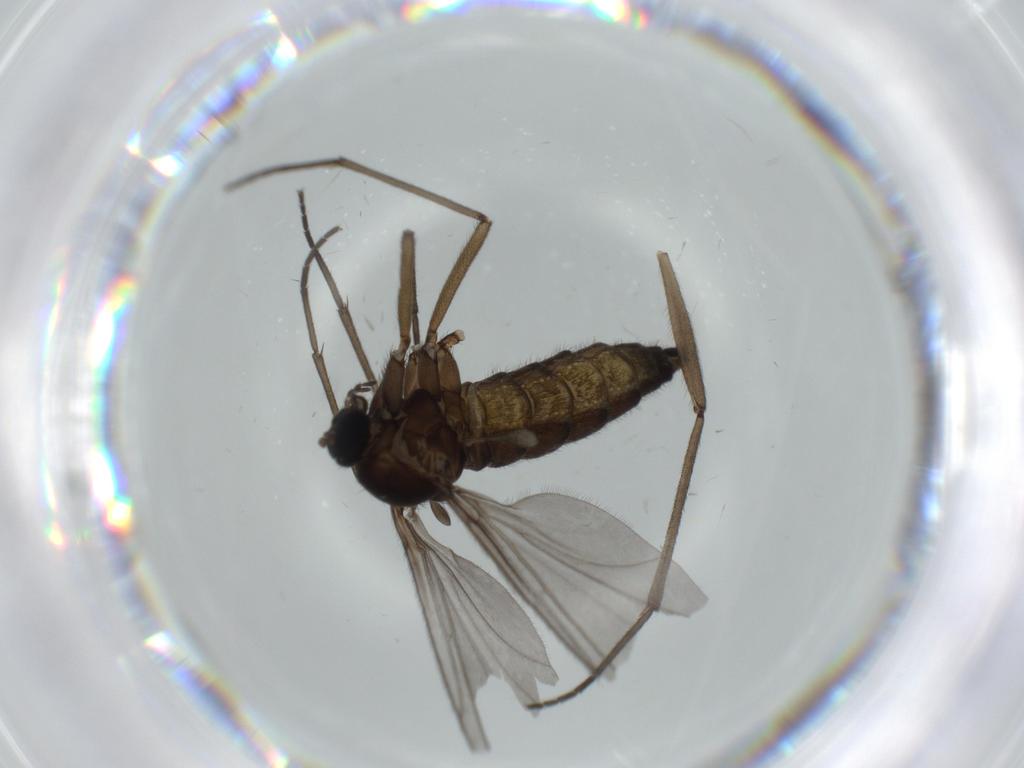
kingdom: Animalia
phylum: Arthropoda
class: Insecta
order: Diptera
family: Sciaridae
